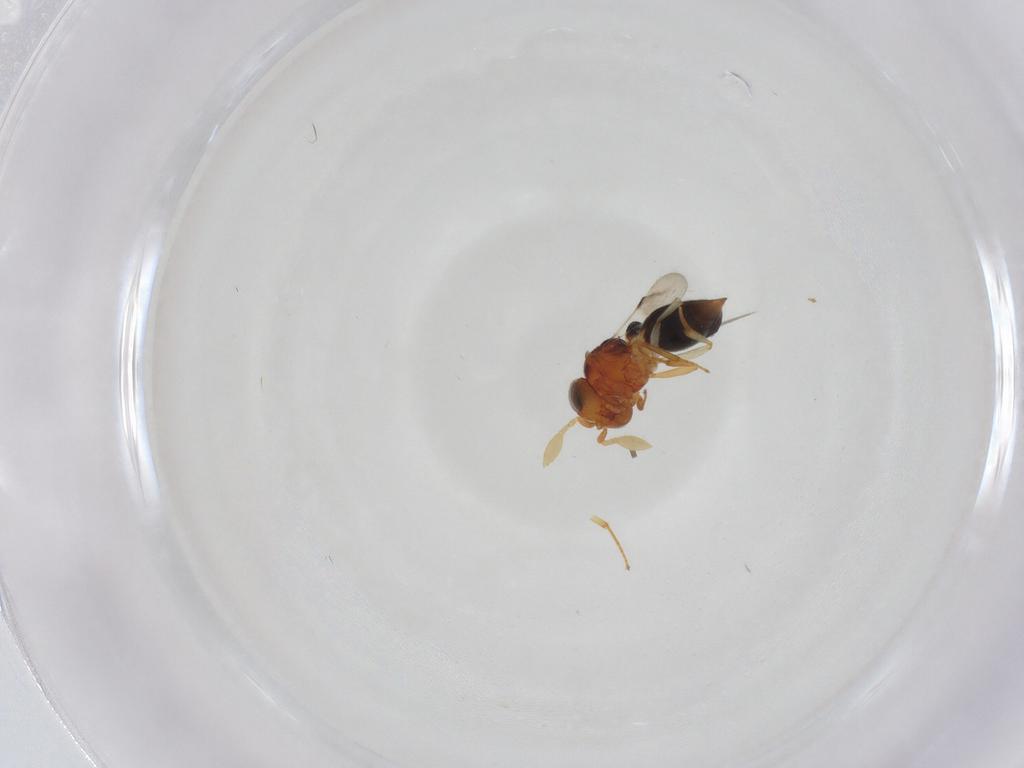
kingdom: Animalia
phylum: Arthropoda
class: Insecta
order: Hymenoptera
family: Scelionidae
